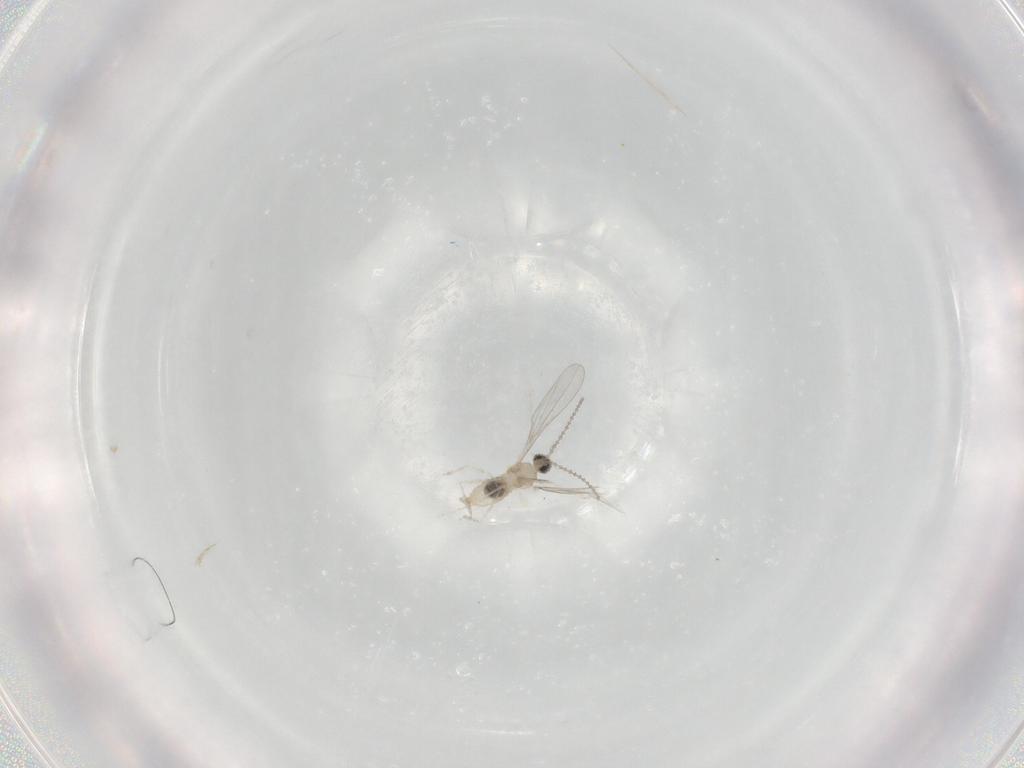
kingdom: Animalia
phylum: Arthropoda
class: Insecta
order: Diptera
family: Cecidomyiidae
